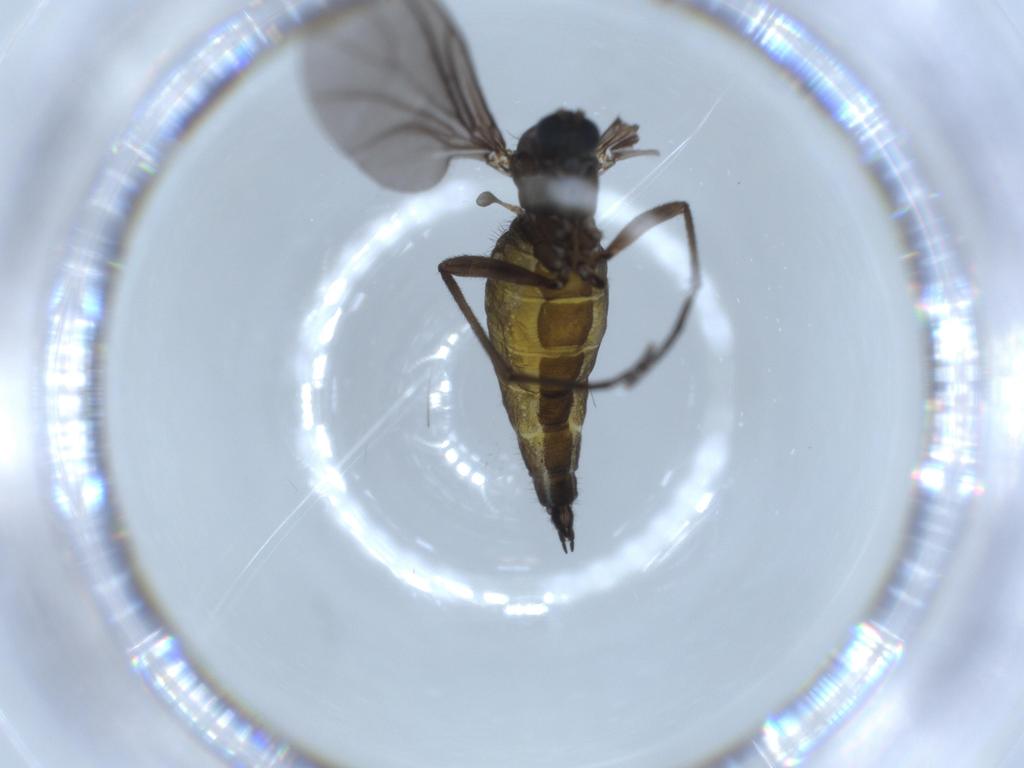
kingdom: Animalia
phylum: Arthropoda
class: Insecta
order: Diptera
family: Sciaridae
